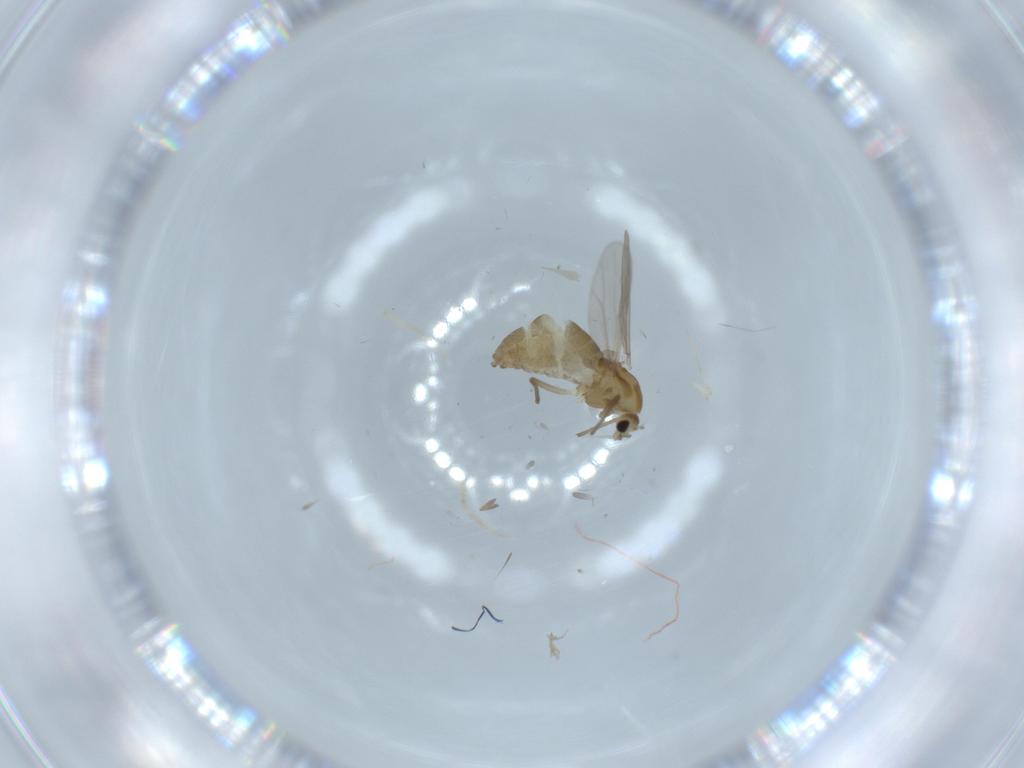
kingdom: Animalia
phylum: Arthropoda
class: Insecta
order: Diptera
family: Chironomidae
